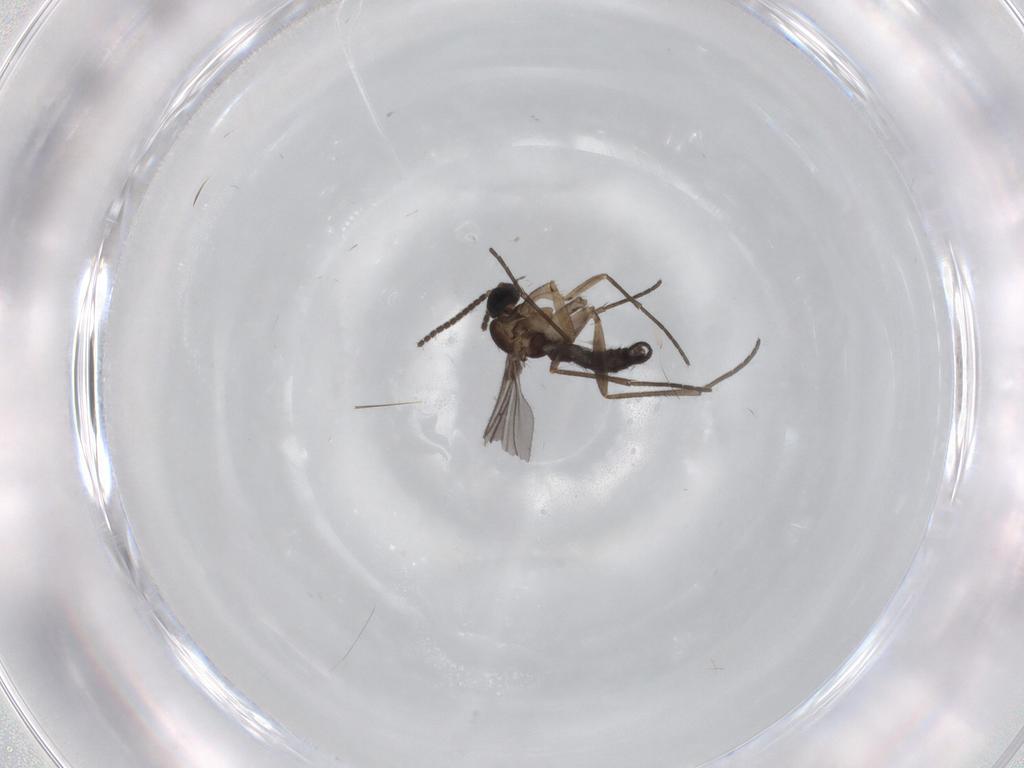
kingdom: Animalia
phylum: Arthropoda
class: Insecta
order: Diptera
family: Sciaridae
